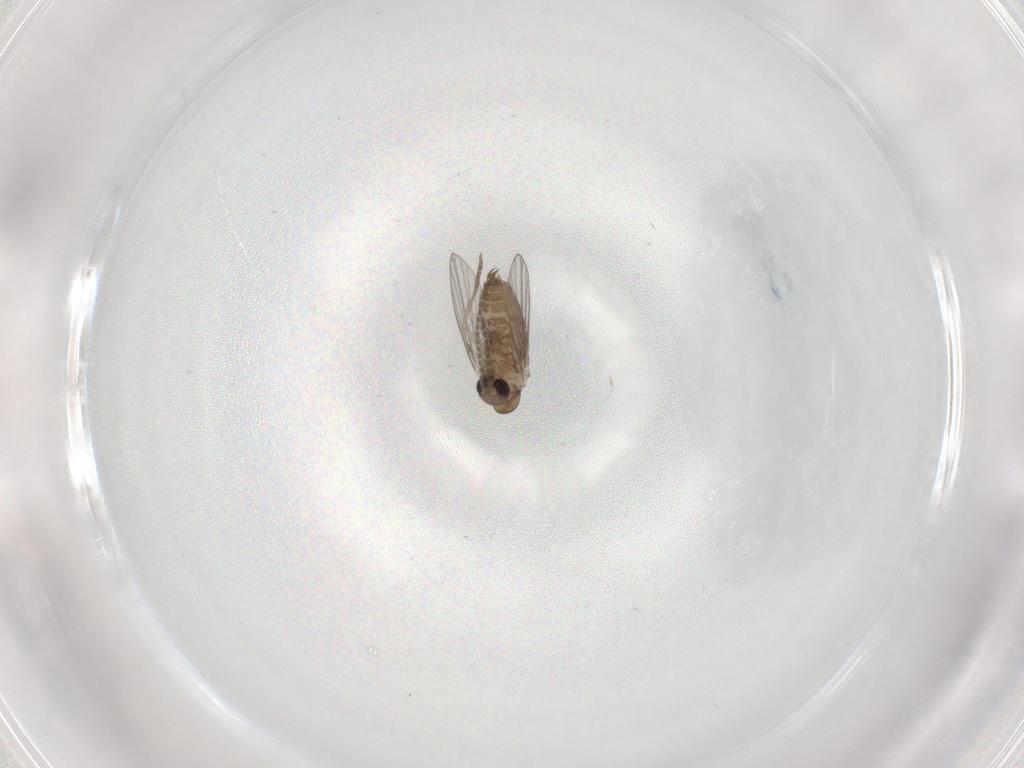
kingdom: Animalia
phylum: Arthropoda
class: Insecta
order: Diptera
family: Psychodidae
